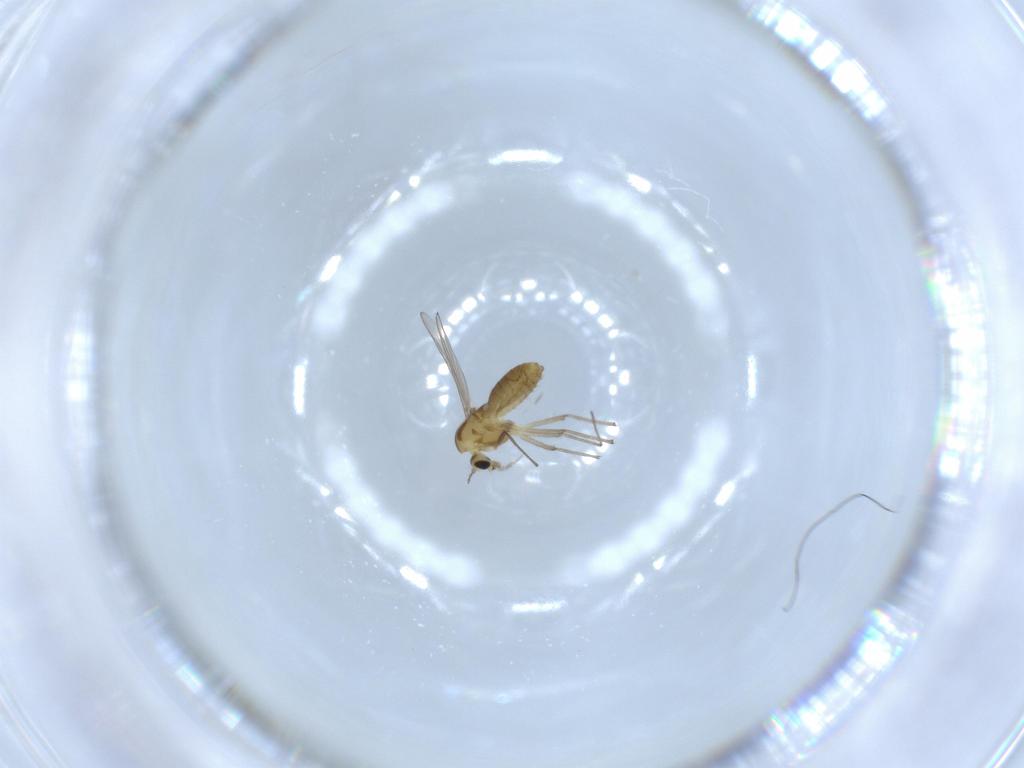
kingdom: Animalia
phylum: Arthropoda
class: Insecta
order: Diptera
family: Chironomidae
